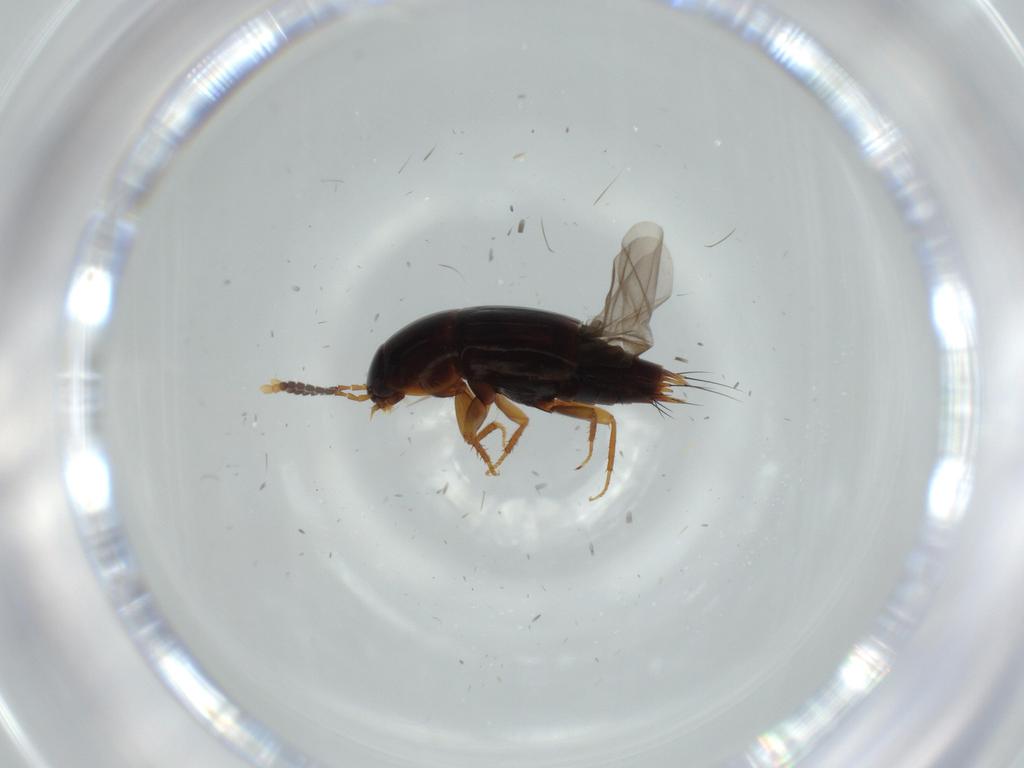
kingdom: Animalia
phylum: Arthropoda
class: Insecta
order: Coleoptera
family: Staphylinidae
